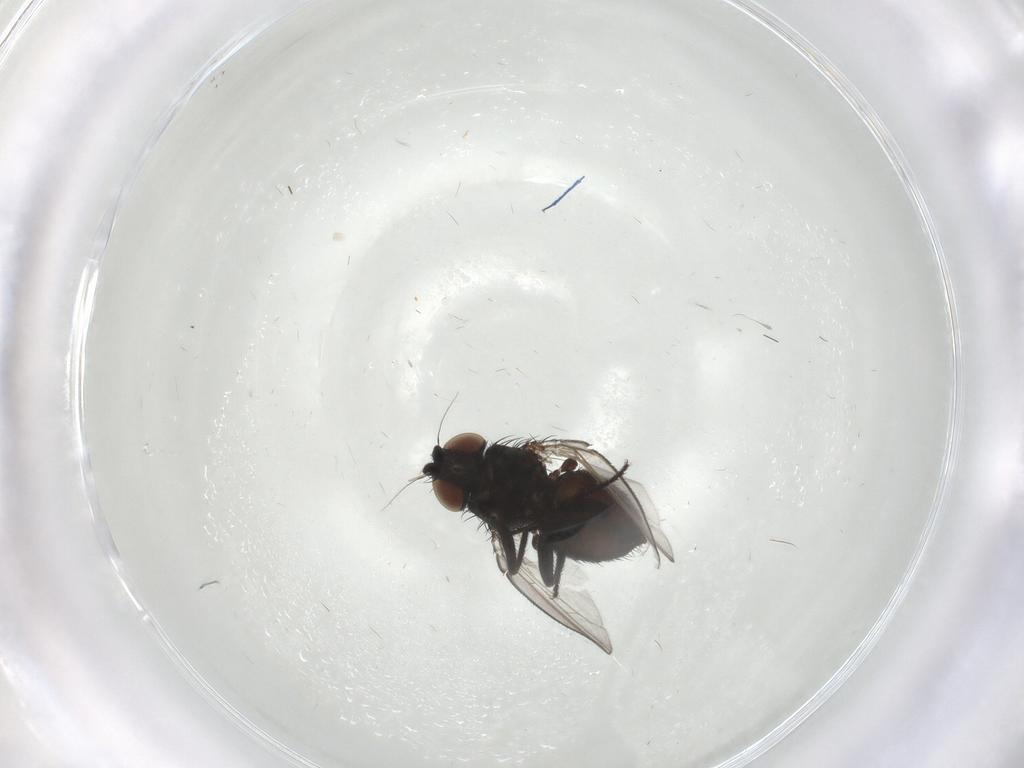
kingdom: Animalia
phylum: Arthropoda
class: Insecta
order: Diptera
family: Milichiidae
